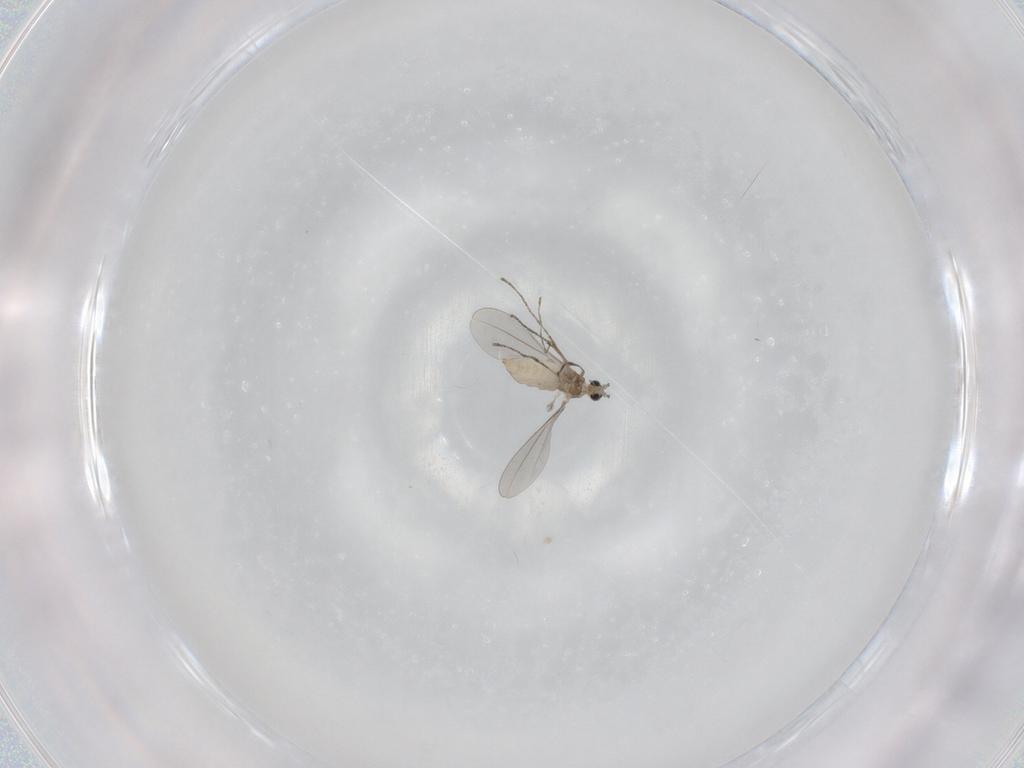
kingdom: Animalia
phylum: Arthropoda
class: Insecta
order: Diptera
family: Cecidomyiidae
